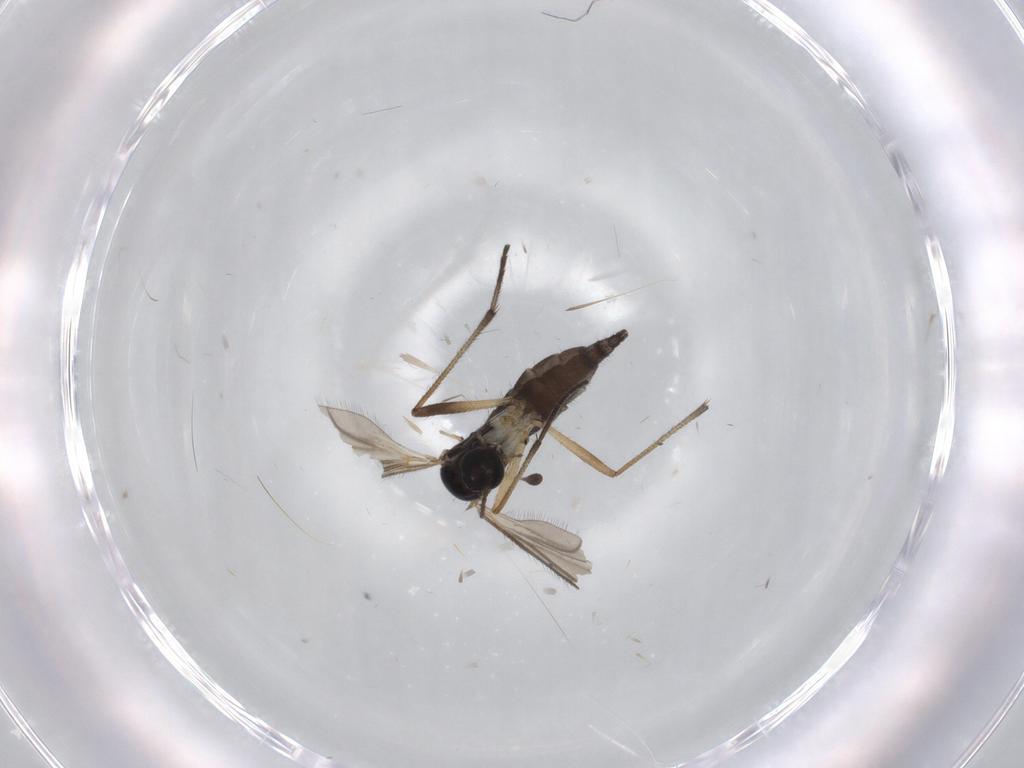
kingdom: Animalia
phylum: Arthropoda
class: Insecta
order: Diptera
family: Sciaridae
